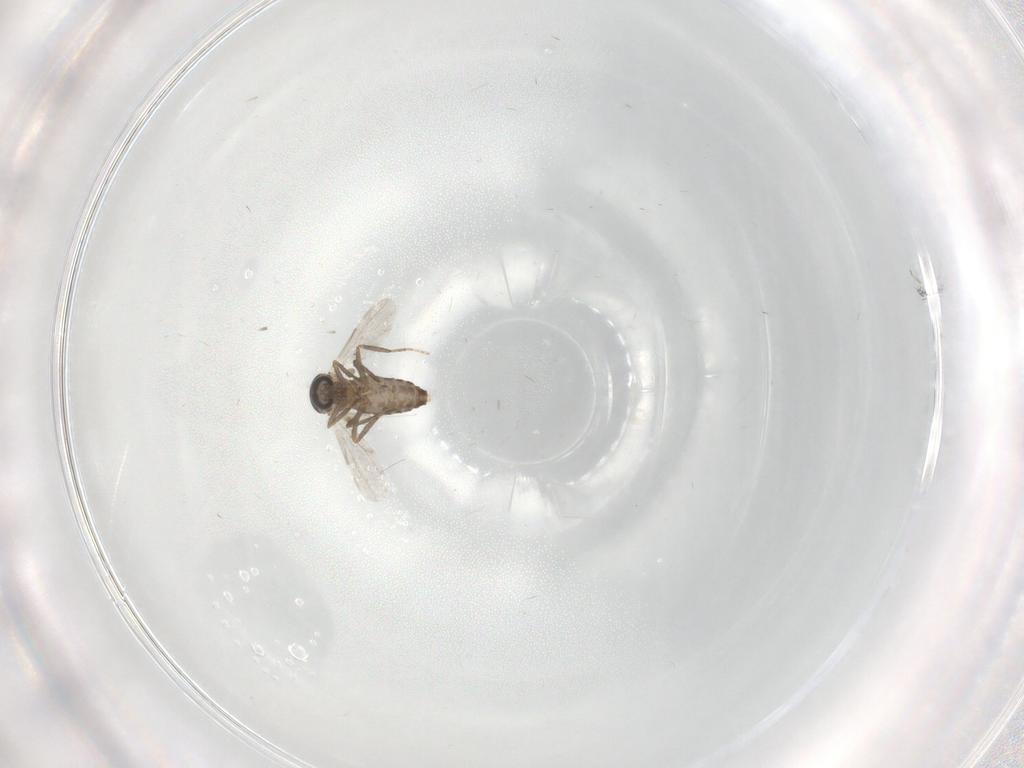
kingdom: Animalia
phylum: Arthropoda
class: Insecta
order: Diptera
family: Ceratopogonidae
